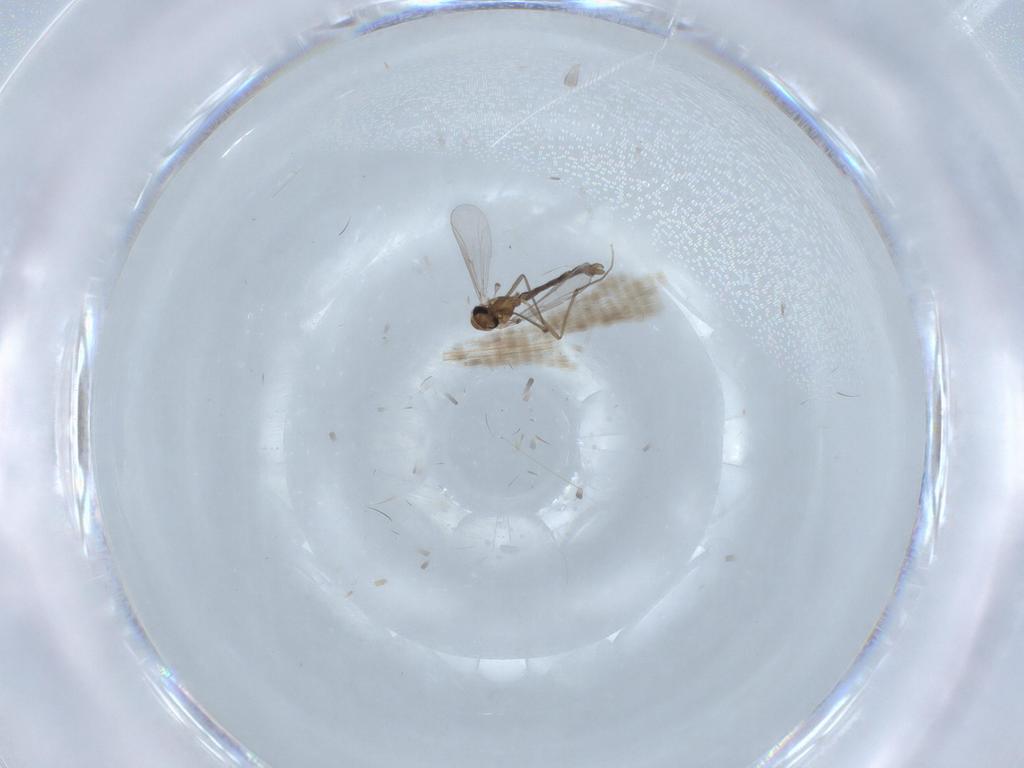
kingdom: Animalia
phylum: Arthropoda
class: Insecta
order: Diptera
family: Chironomidae
